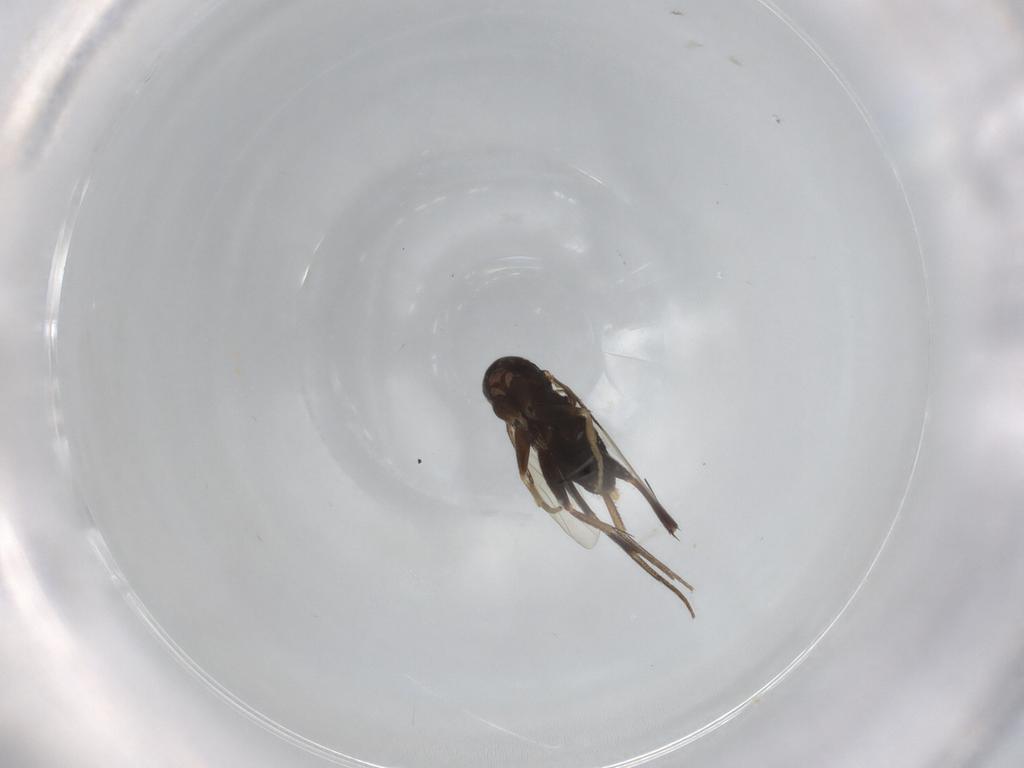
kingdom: Animalia
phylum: Arthropoda
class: Insecta
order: Diptera
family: Phoridae
